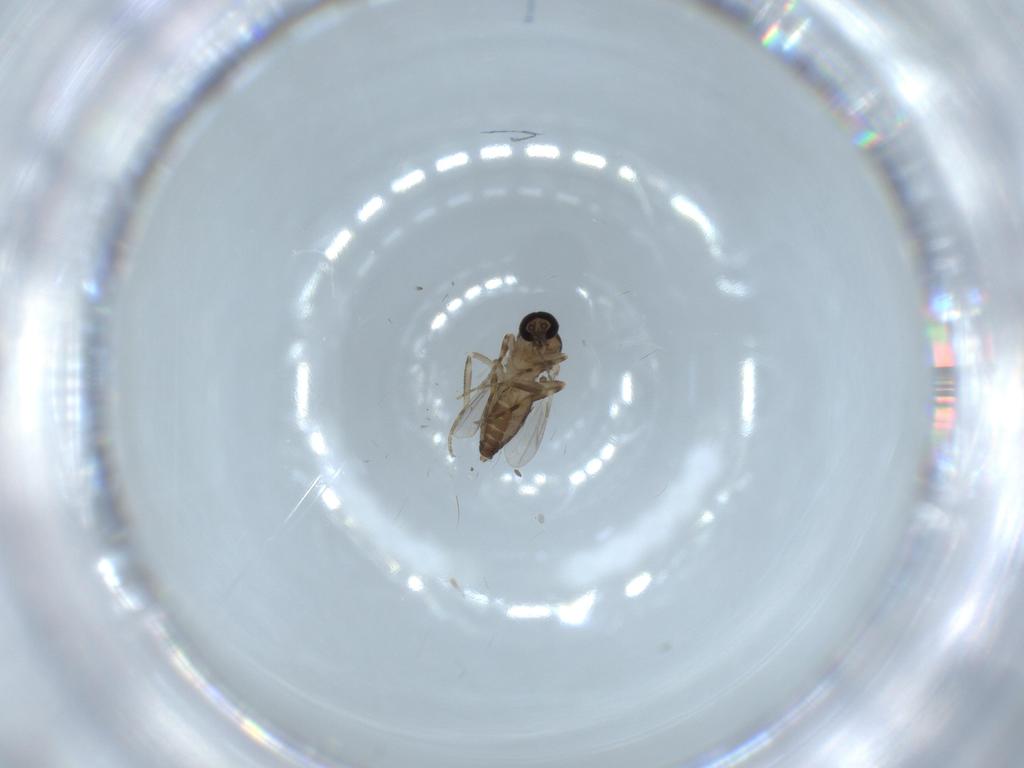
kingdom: Animalia
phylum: Arthropoda
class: Insecta
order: Diptera
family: Ceratopogonidae
